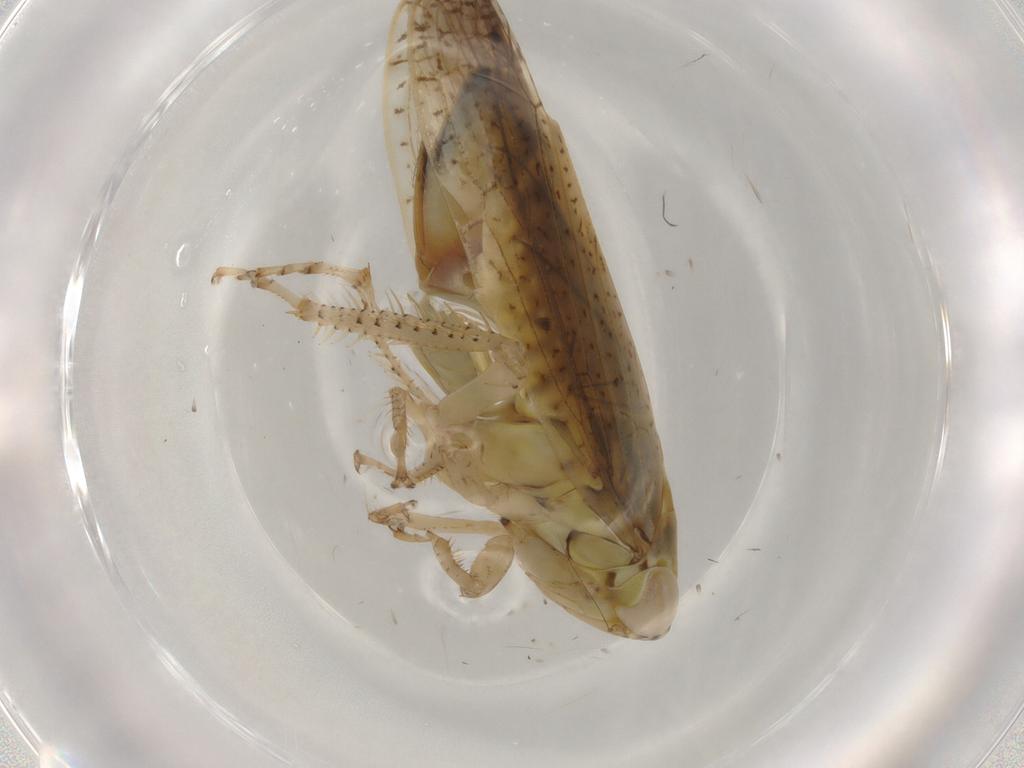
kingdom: Animalia
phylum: Arthropoda
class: Insecta
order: Hemiptera
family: Cicadellidae
